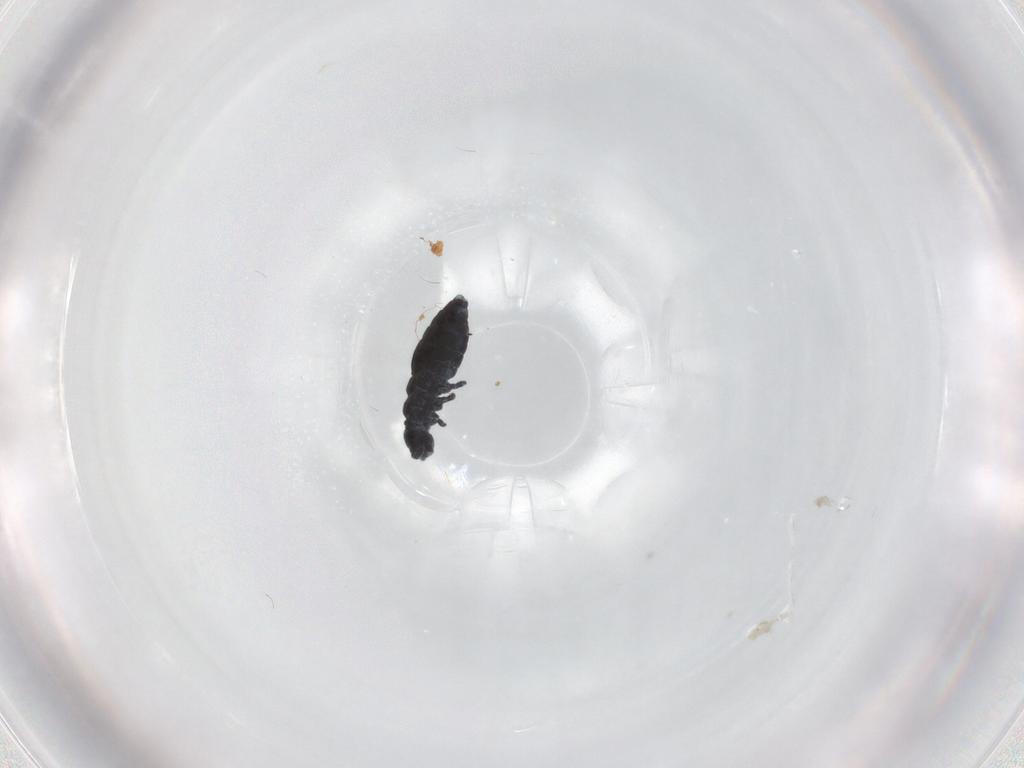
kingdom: Animalia
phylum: Arthropoda
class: Collembola
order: Poduromorpha
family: Hypogastruridae
